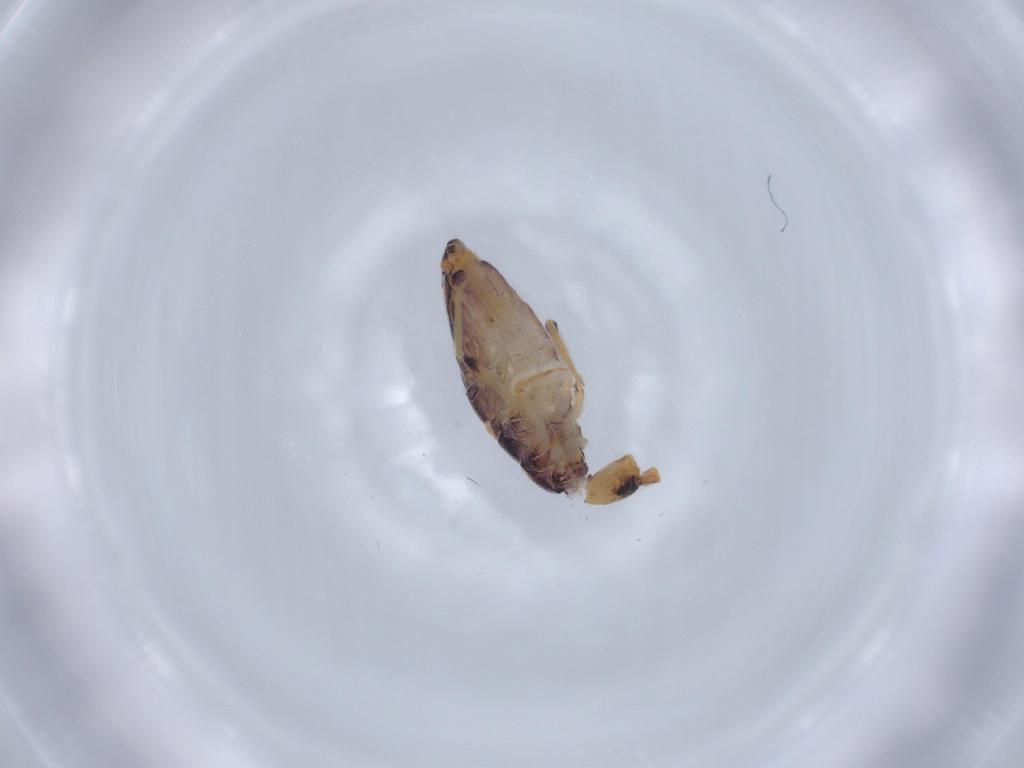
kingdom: Animalia
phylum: Arthropoda
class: Collembola
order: Entomobryomorpha
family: Entomobryidae
